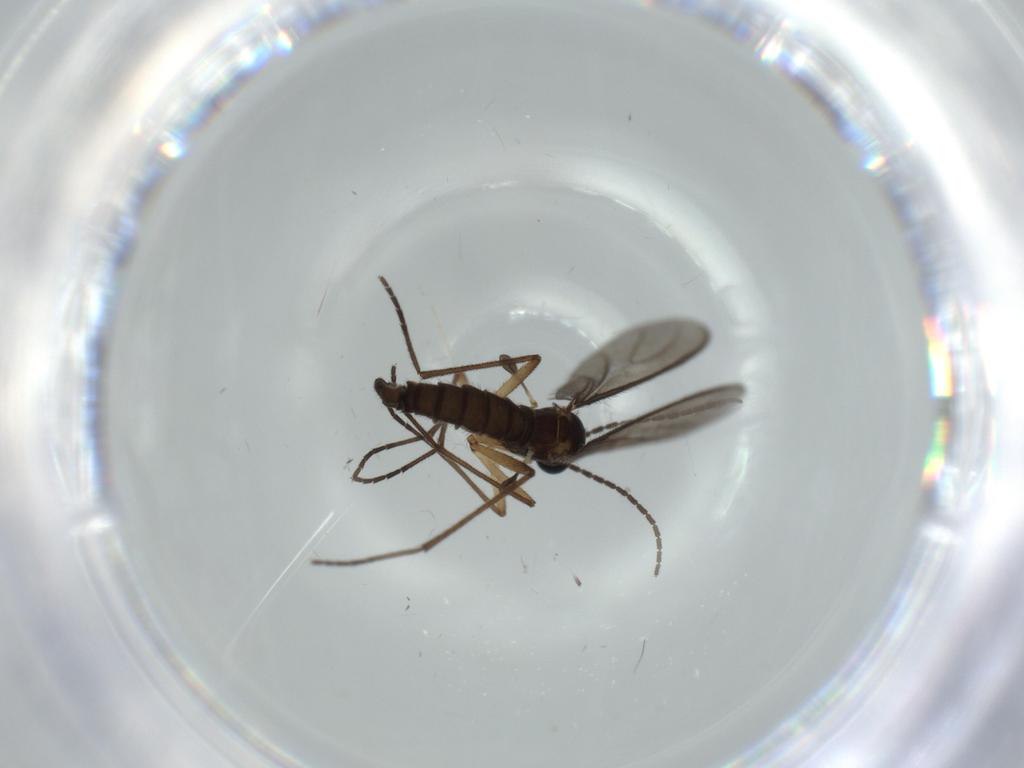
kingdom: Animalia
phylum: Arthropoda
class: Insecta
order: Diptera
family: Sciaridae
